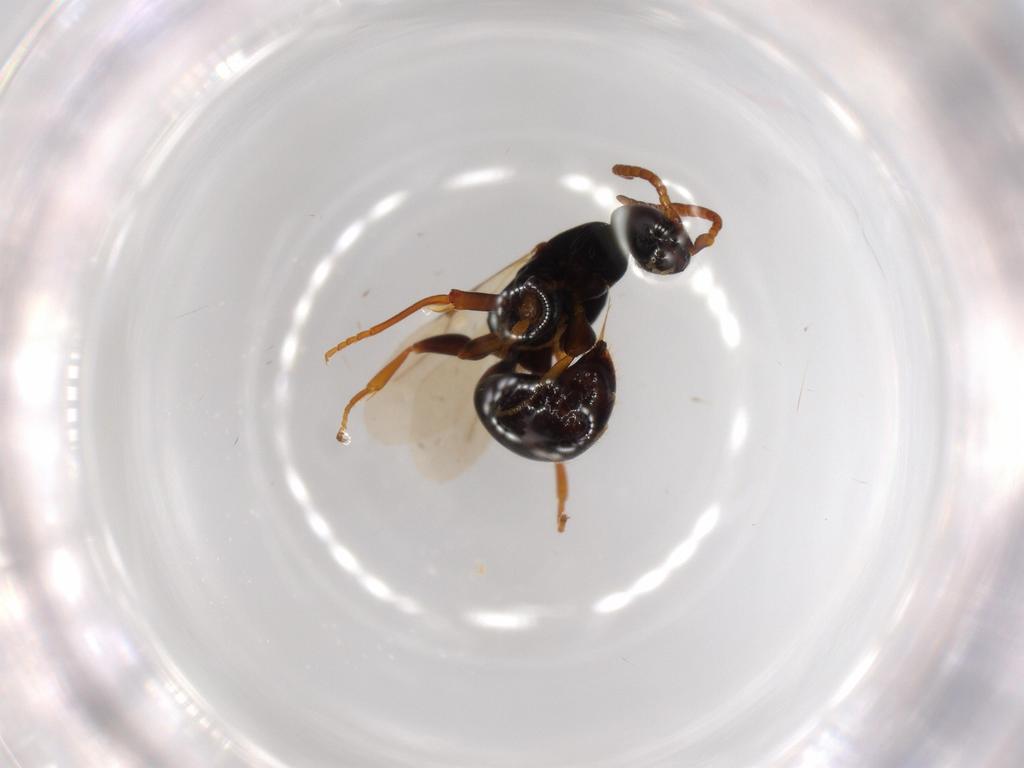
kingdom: Animalia
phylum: Arthropoda
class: Insecta
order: Hymenoptera
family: Bethylidae
